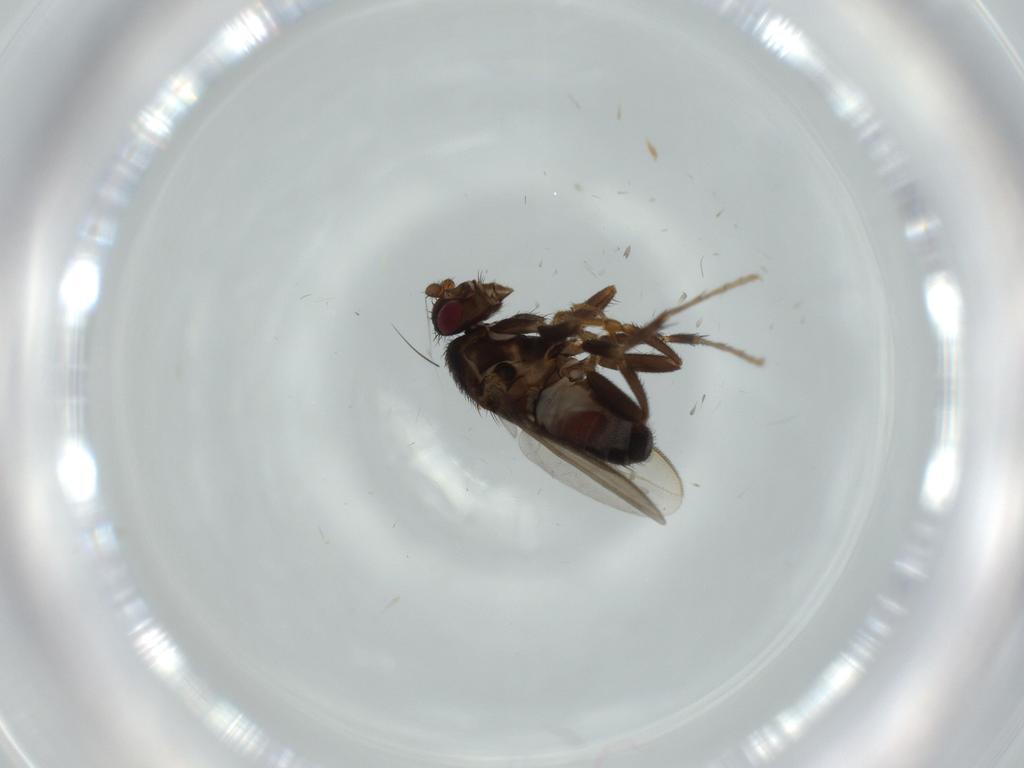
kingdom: Animalia
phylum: Arthropoda
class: Insecta
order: Diptera
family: Sphaeroceridae
